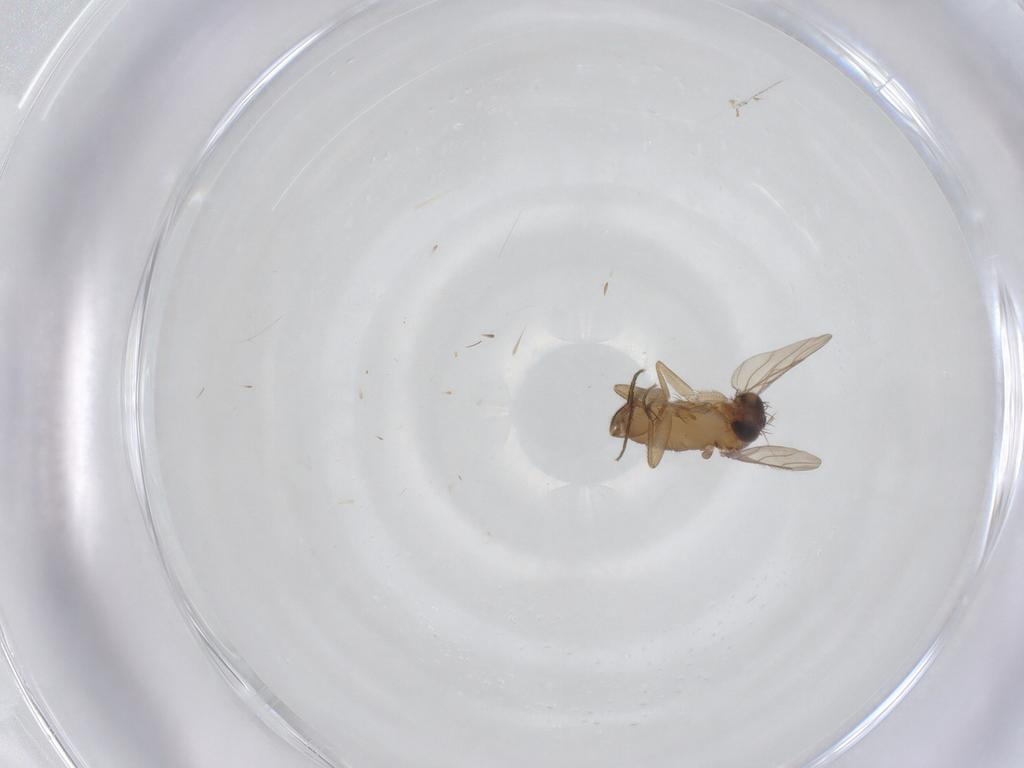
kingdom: Animalia
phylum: Arthropoda
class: Insecta
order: Diptera
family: Phoridae
